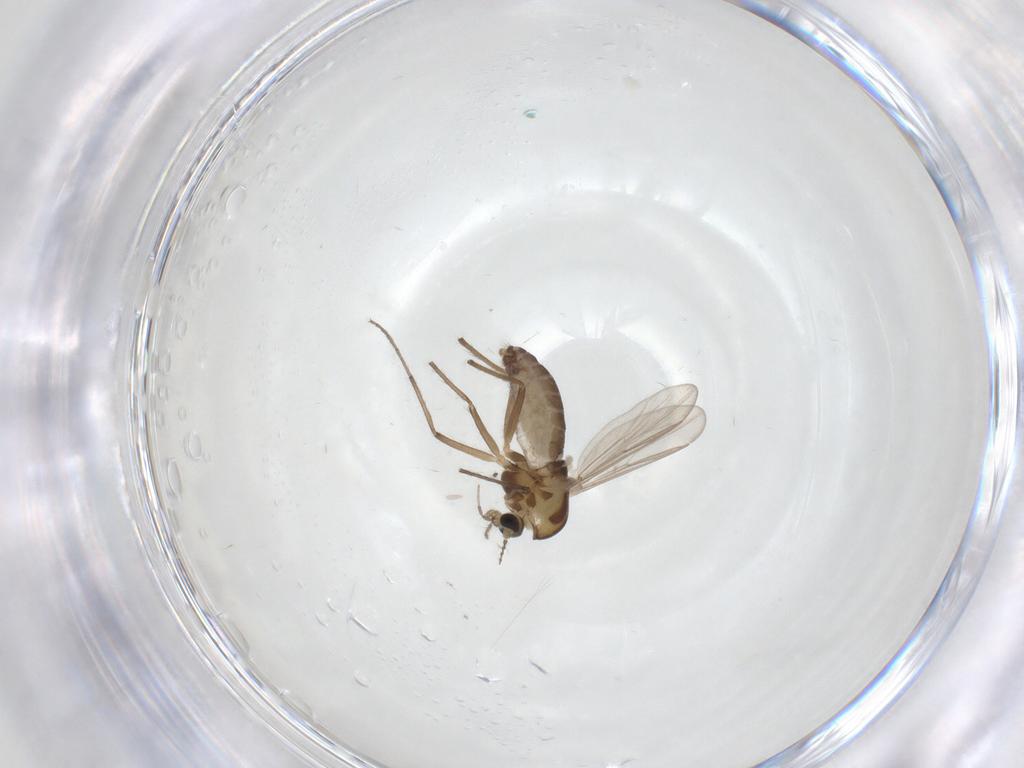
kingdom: Animalia
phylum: Arthropoda
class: Insecta
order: Diptera
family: Chironomidae
